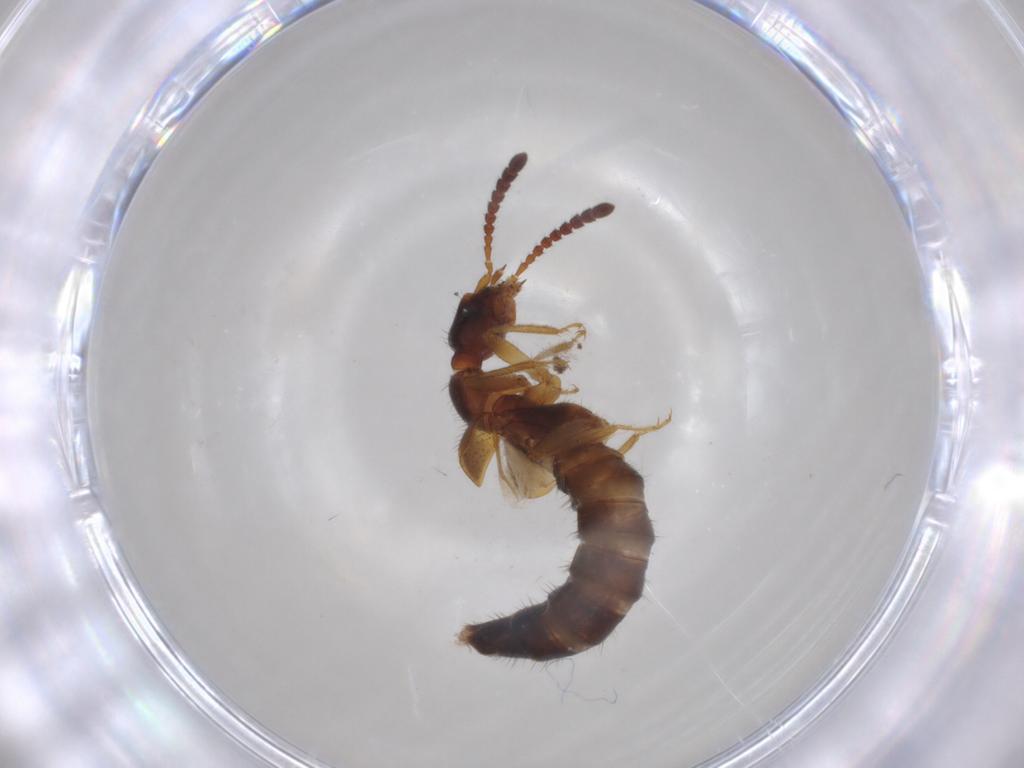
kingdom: Animalia
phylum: Arthropoda
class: Insecta
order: Coleoptera
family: Staphylinidae
